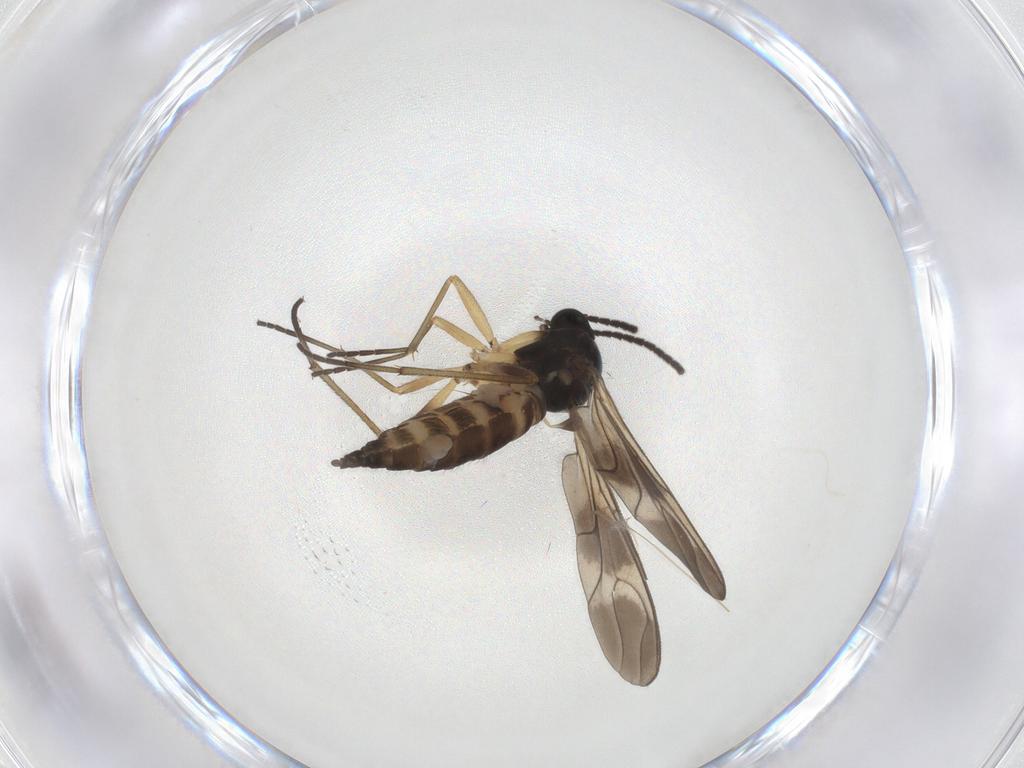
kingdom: Animalia
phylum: Arthropoda
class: Insecta
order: Diptera
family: Sciaridae
